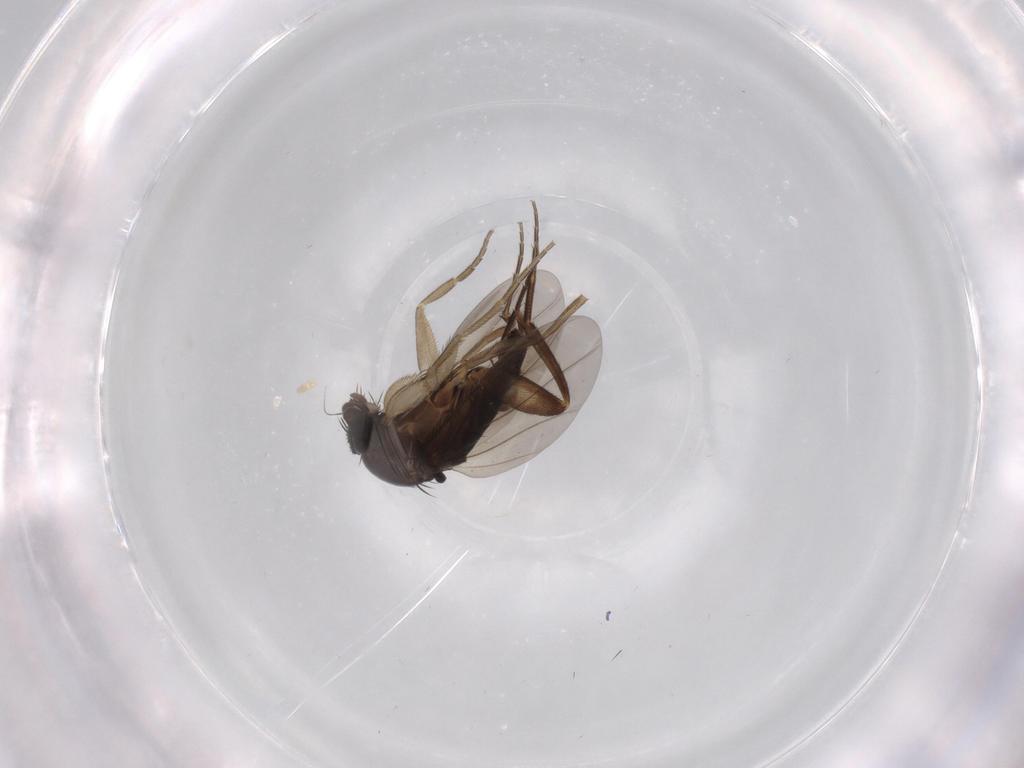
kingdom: Animalia
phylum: Arthropoda
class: Insecta
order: Diptera
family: Phoridae
